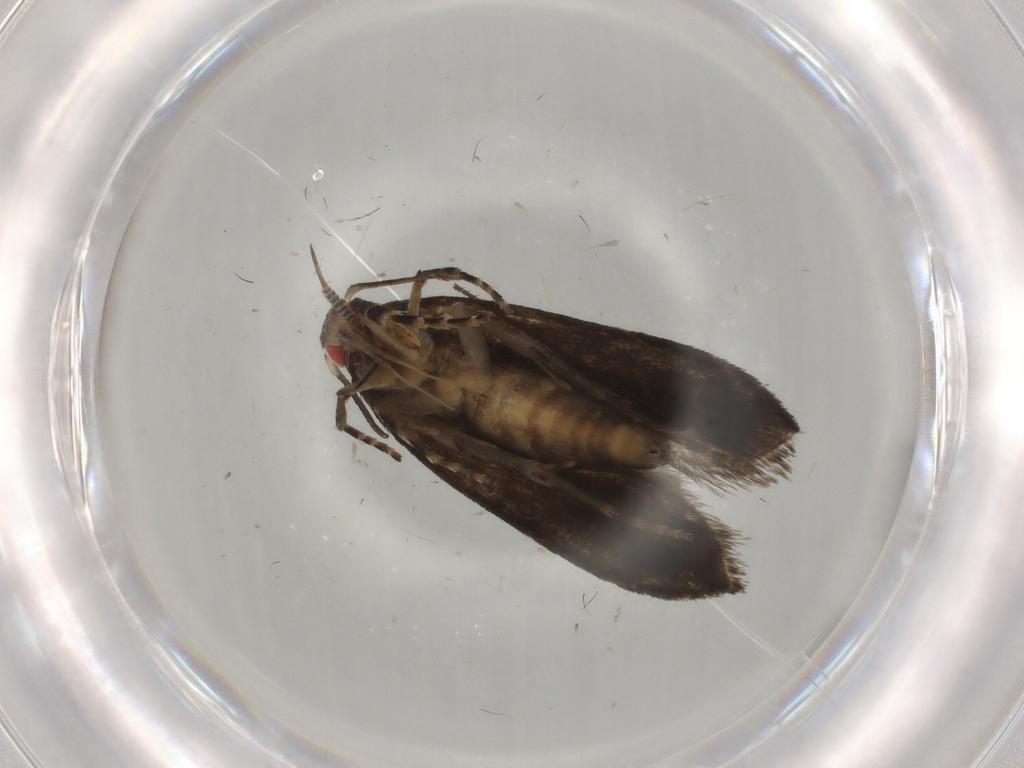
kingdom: Animalia
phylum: Arthropoda
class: Insecta
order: Lepidoptera
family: Gelechiidae
